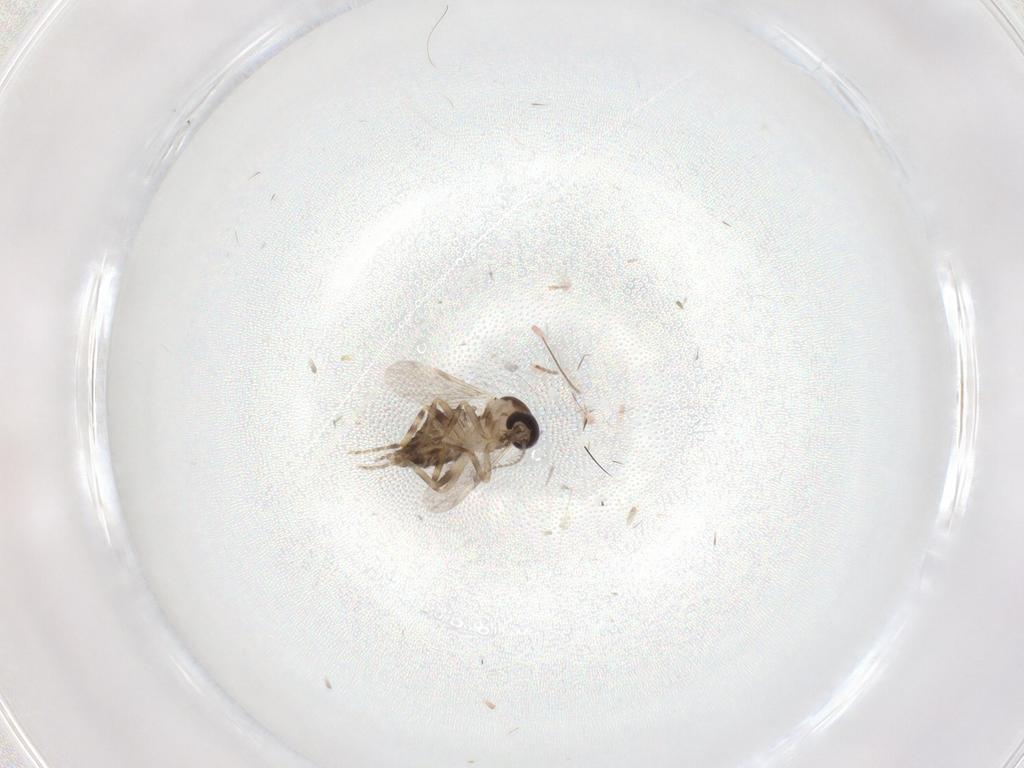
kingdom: Animalia
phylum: Arthropoda
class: Insecta
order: Diptera
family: Ceratopogonidae
